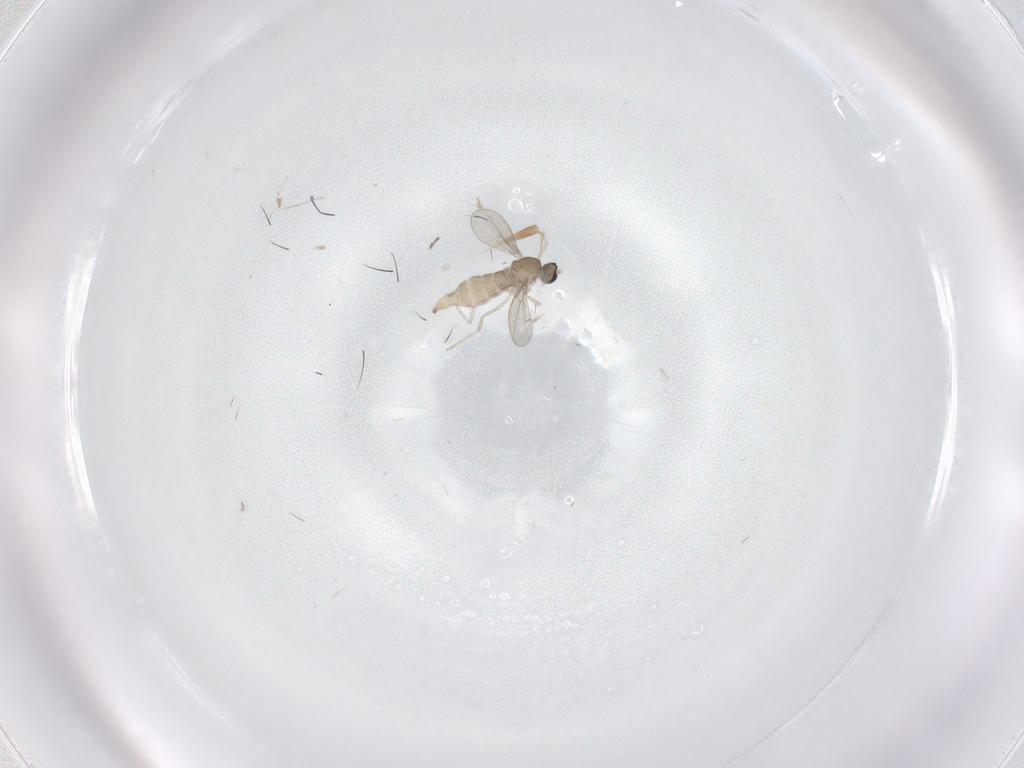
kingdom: Animalia
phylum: Arthropoda
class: Insecta
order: Diptera
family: Cecidomyiidae
